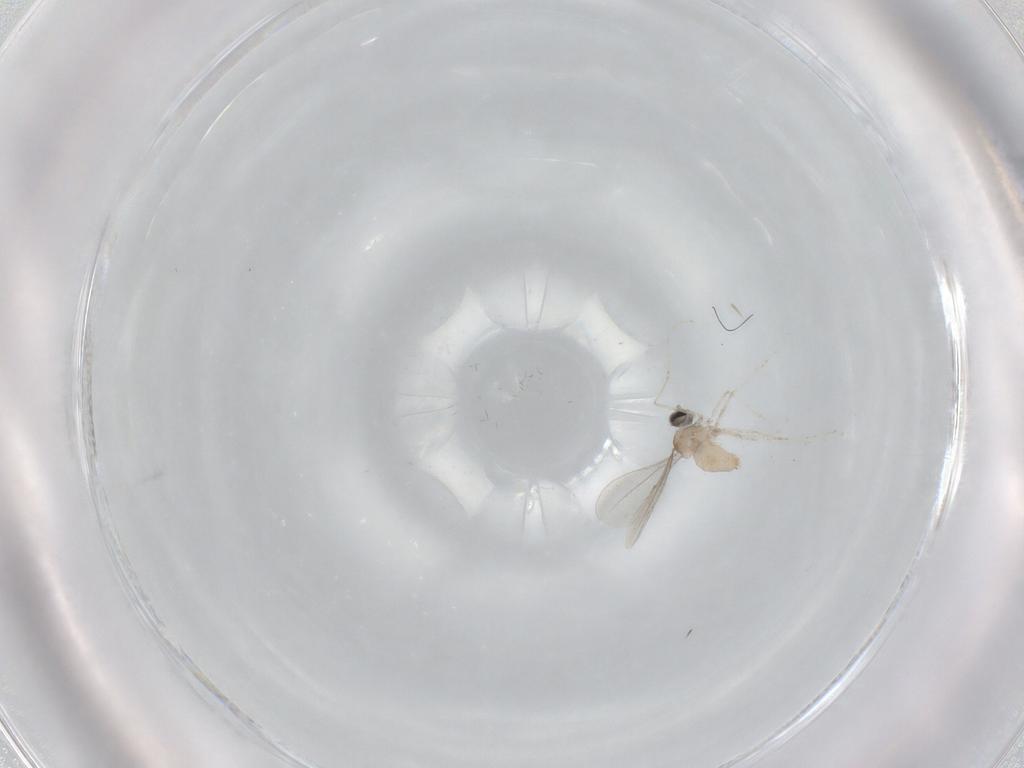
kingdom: Animalia
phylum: Arthropoda
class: Insecta
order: Diptera
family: Cecidomyiidae
